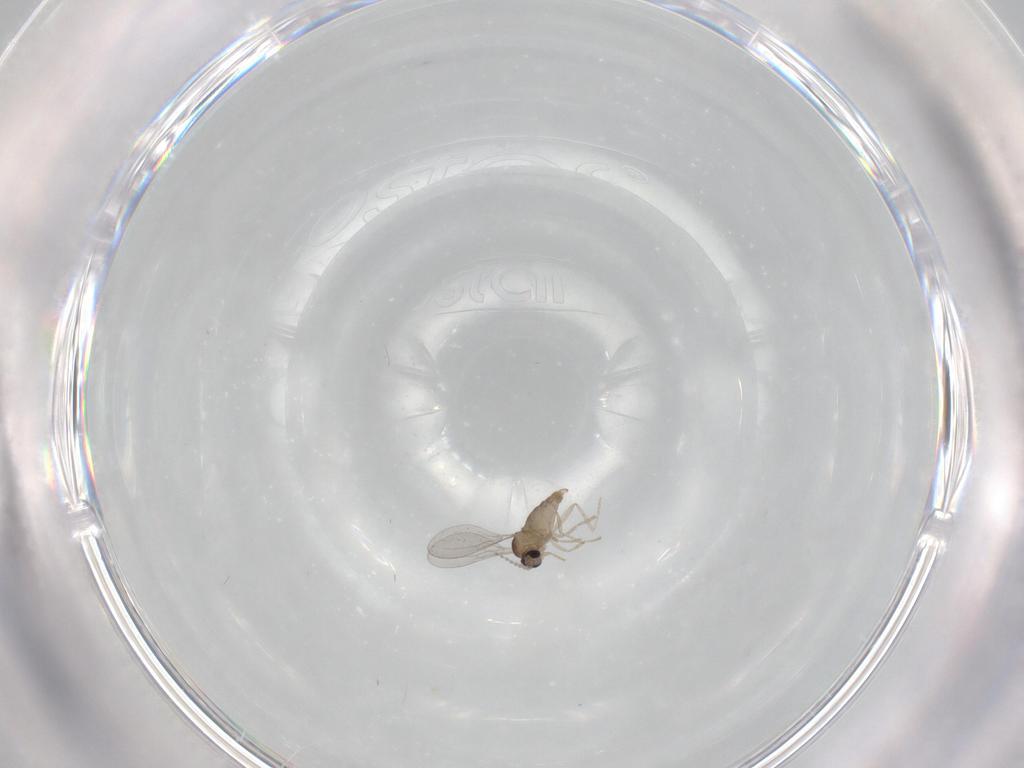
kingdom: Animalia
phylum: Arthropoda
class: Insecta
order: Diptera
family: Cecidomyiidae
